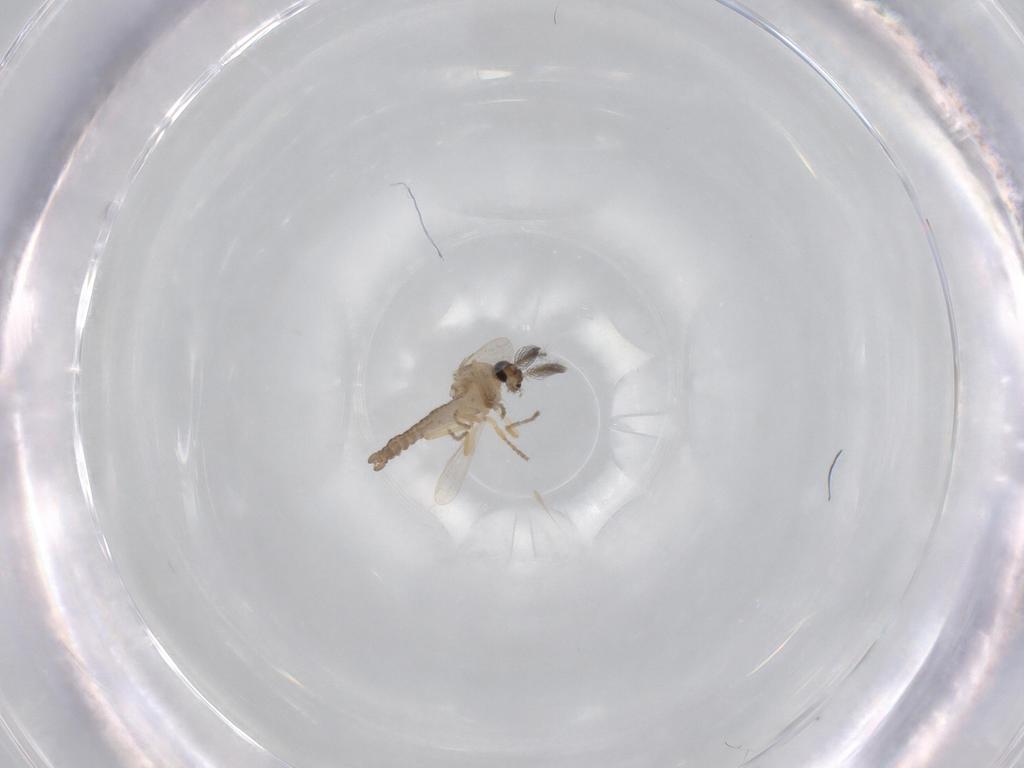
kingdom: Animalia
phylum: Arthropoda
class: Insecta
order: Diptera
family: Ceratopogonidae
